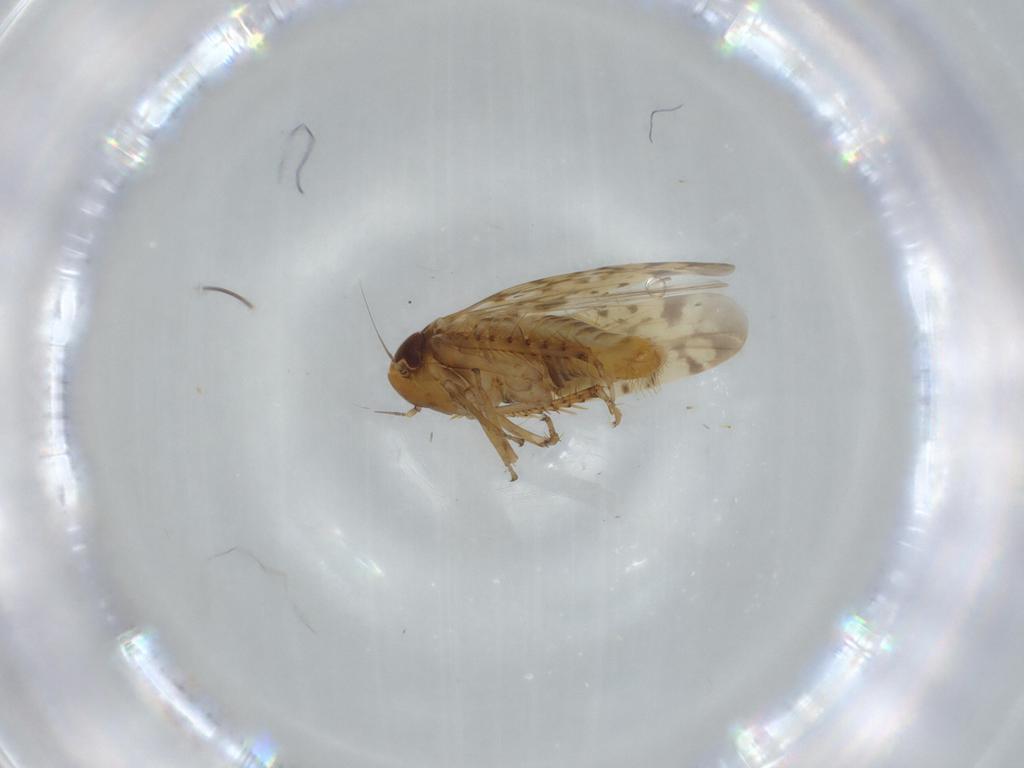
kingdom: Animalia
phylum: Arthropoda
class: Insecta
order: Hemiptera
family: Cicadellidae
